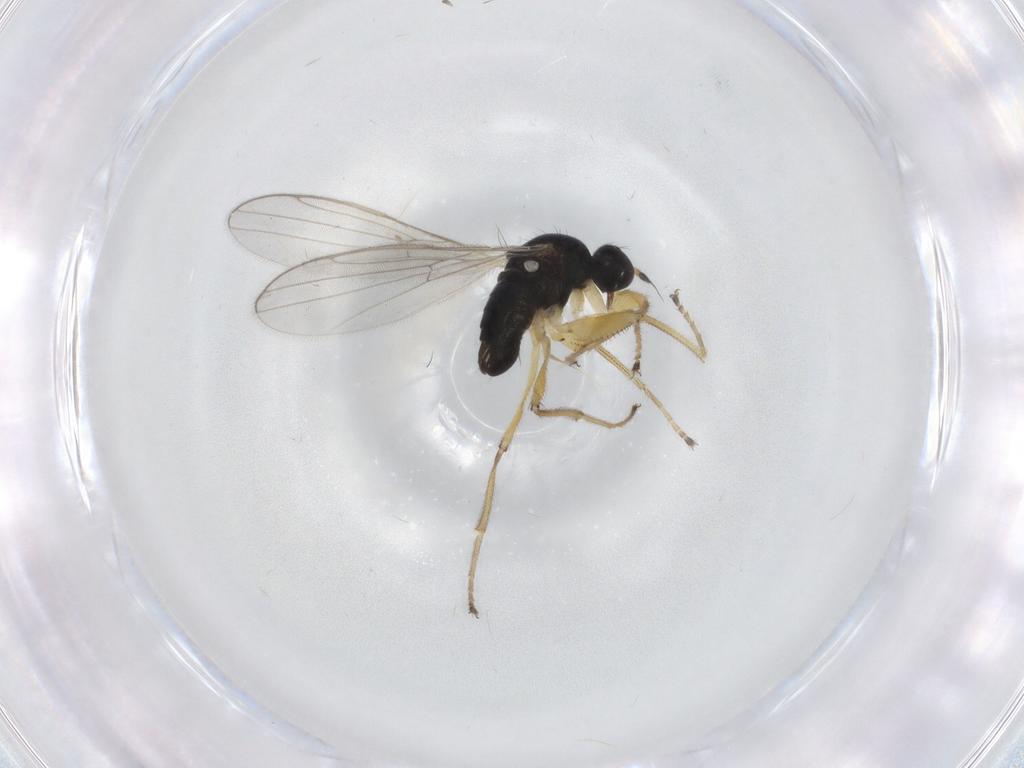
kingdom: Animalia
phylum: Arthropoda
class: Insecta
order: Diptera
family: Hybotidae
